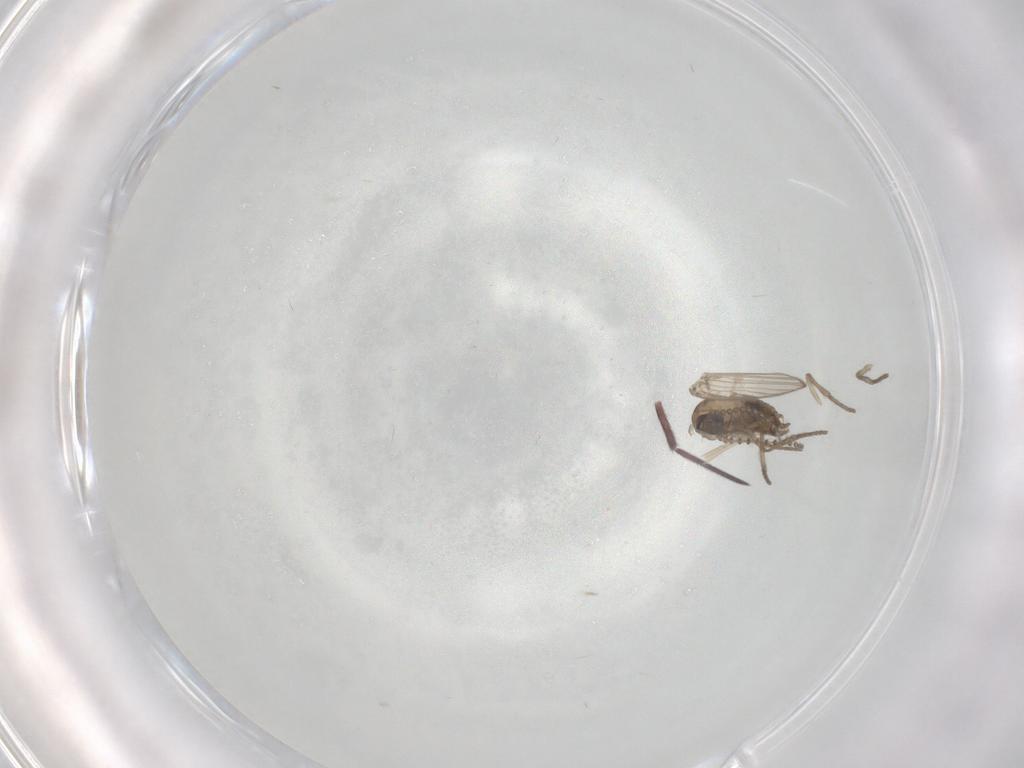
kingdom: Animalia
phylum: Arthropoda
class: Insecta
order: Diptera
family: Psychodidae
